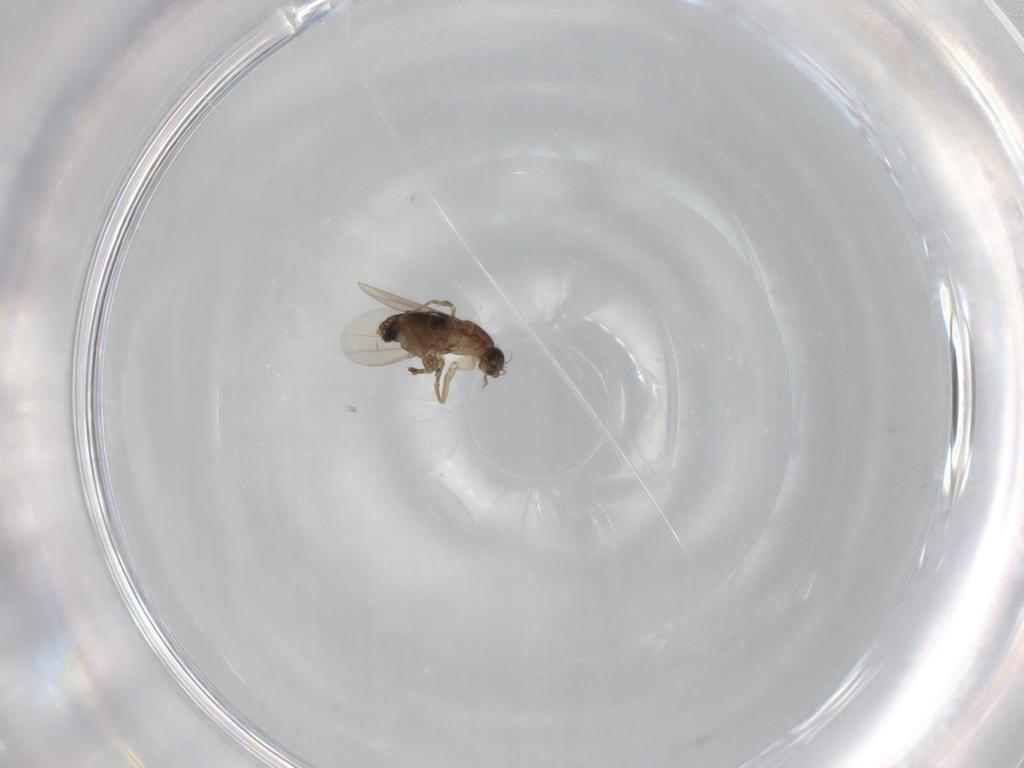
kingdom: Animalia
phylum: Arthropoda
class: Insecta
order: Diptera
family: Phoridae
